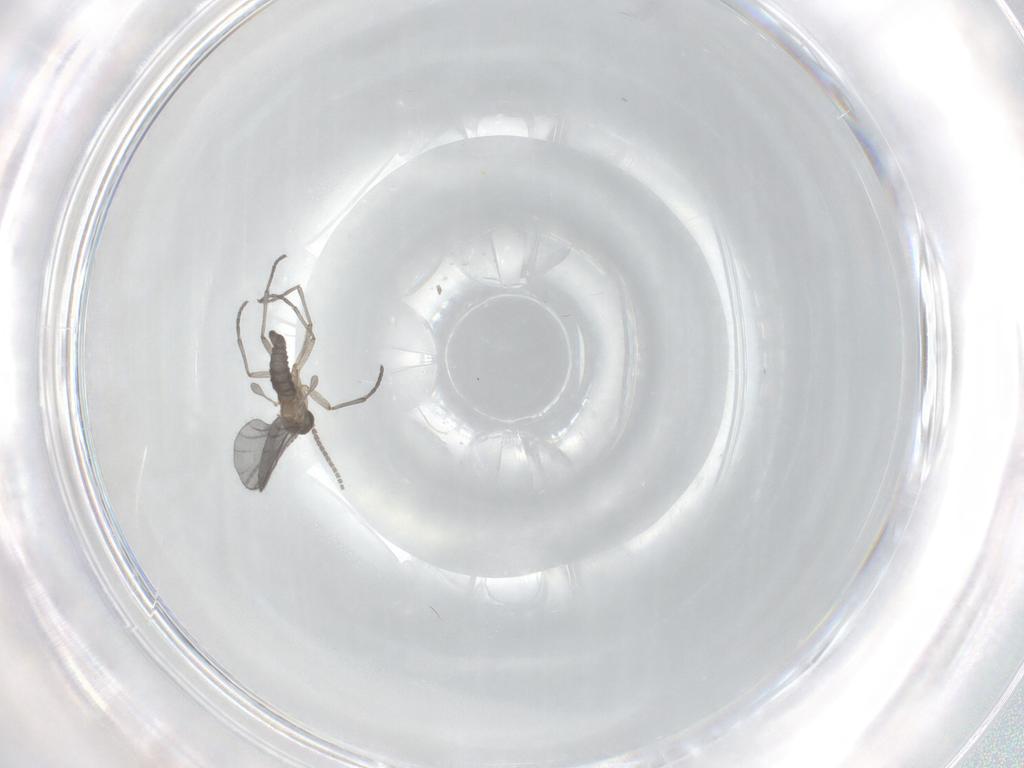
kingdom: Animalia
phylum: Arthropoda
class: Insecta
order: Diptera
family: Sciaridae
